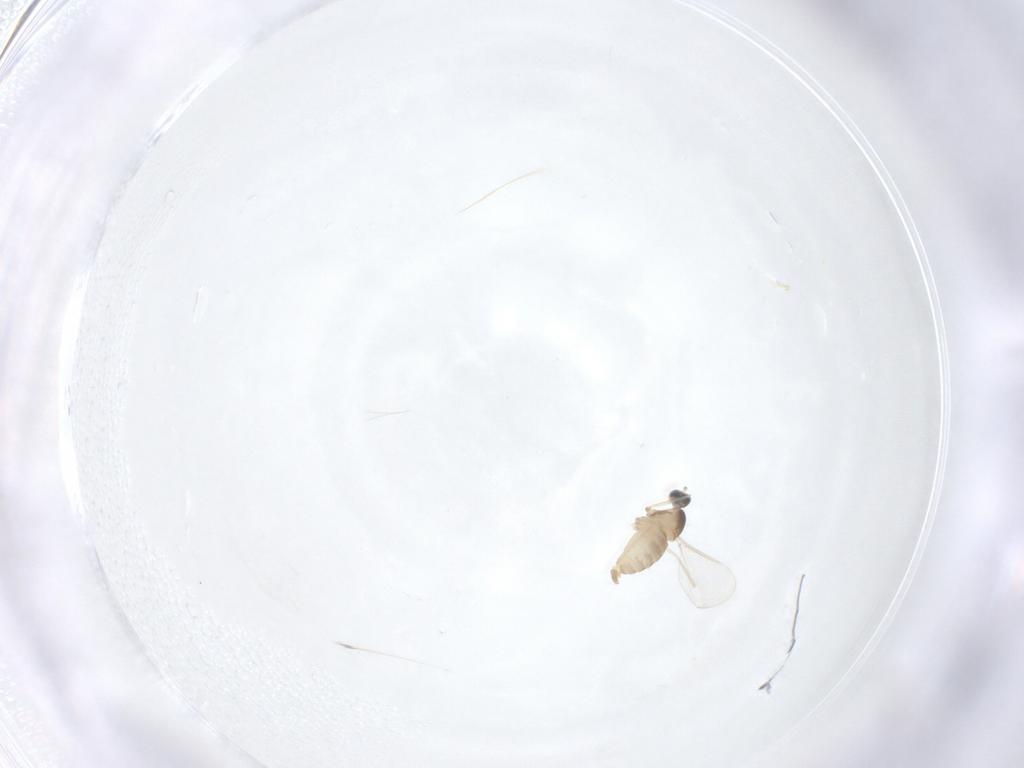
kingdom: Animalia
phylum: Arthropoda
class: Insecta
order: Diptera
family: Cecidomyiidae
